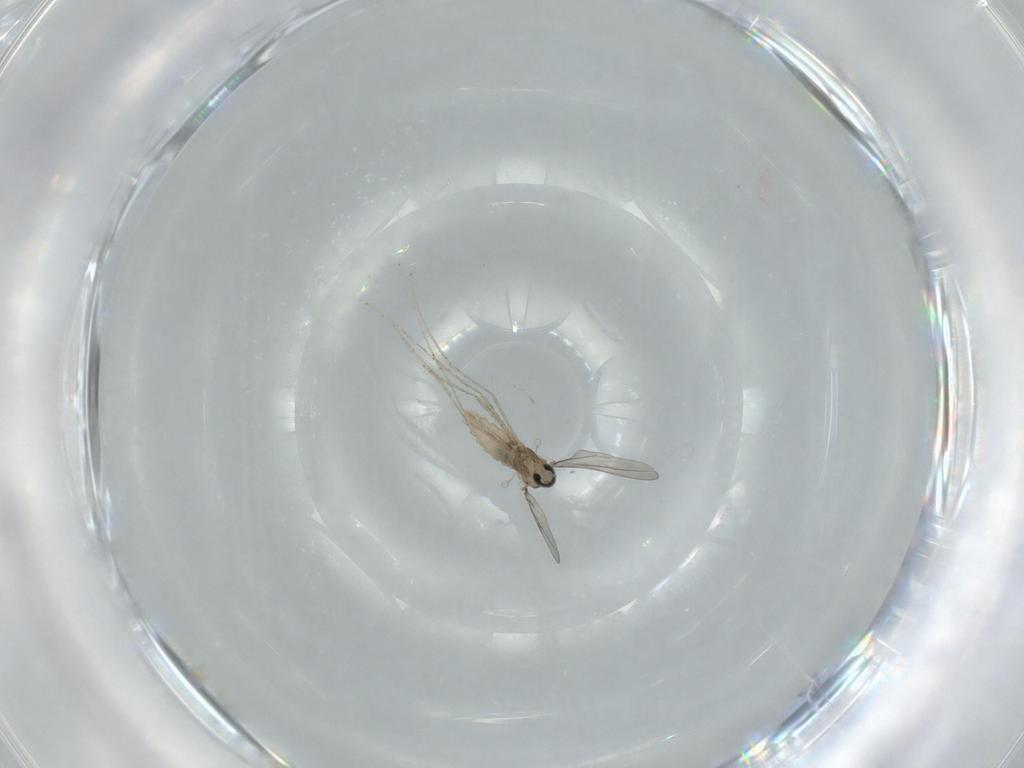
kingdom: Animalia
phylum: Arthropoda
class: Insecta
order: Diptera
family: Cecidomyiidae
